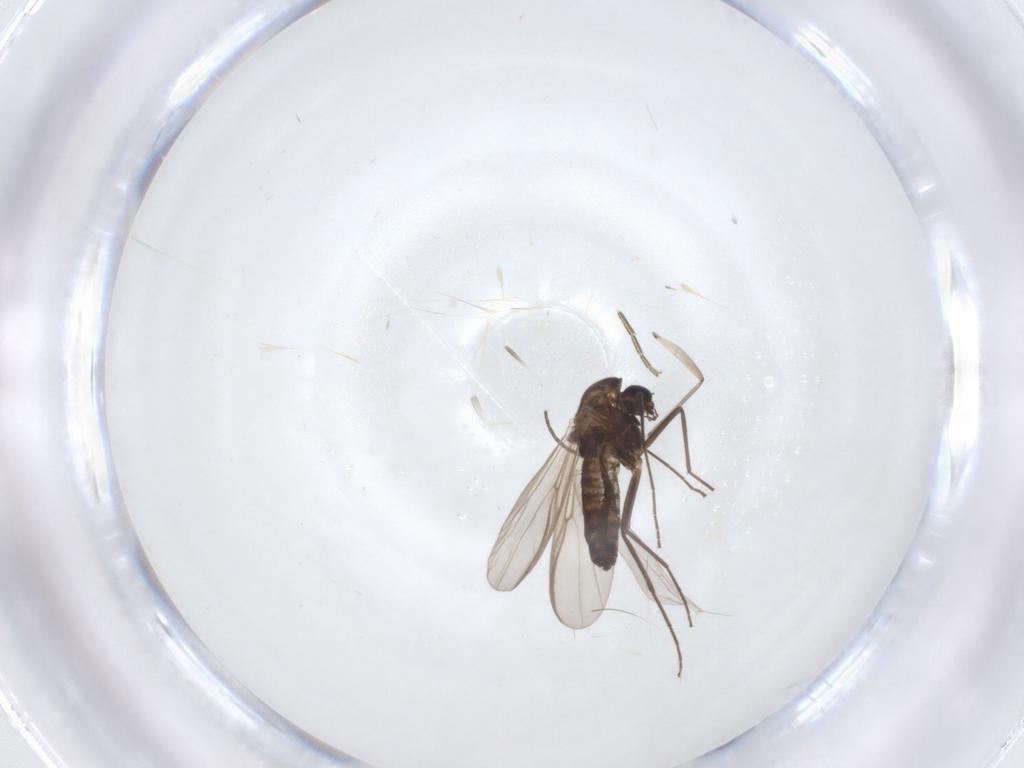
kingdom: Animalia
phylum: Arthropoda
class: Insecta
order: Diptera
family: Chironomidae
